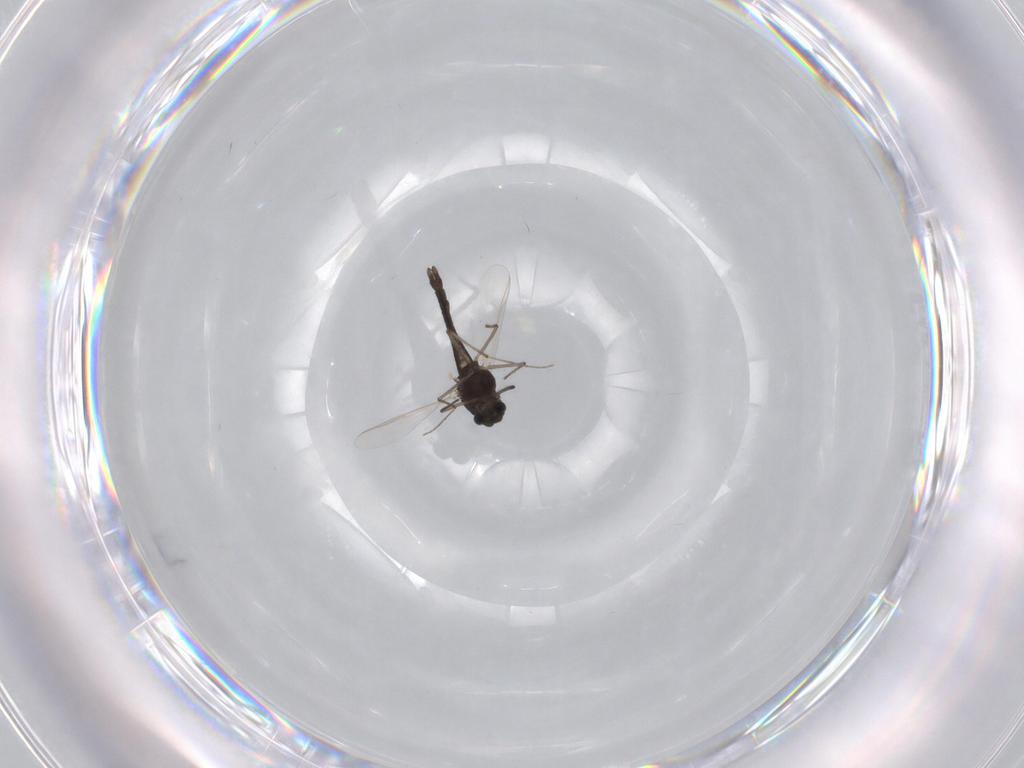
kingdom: Animalia
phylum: Arthropoda
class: Insecta
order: Diptera
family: Chironomidae
